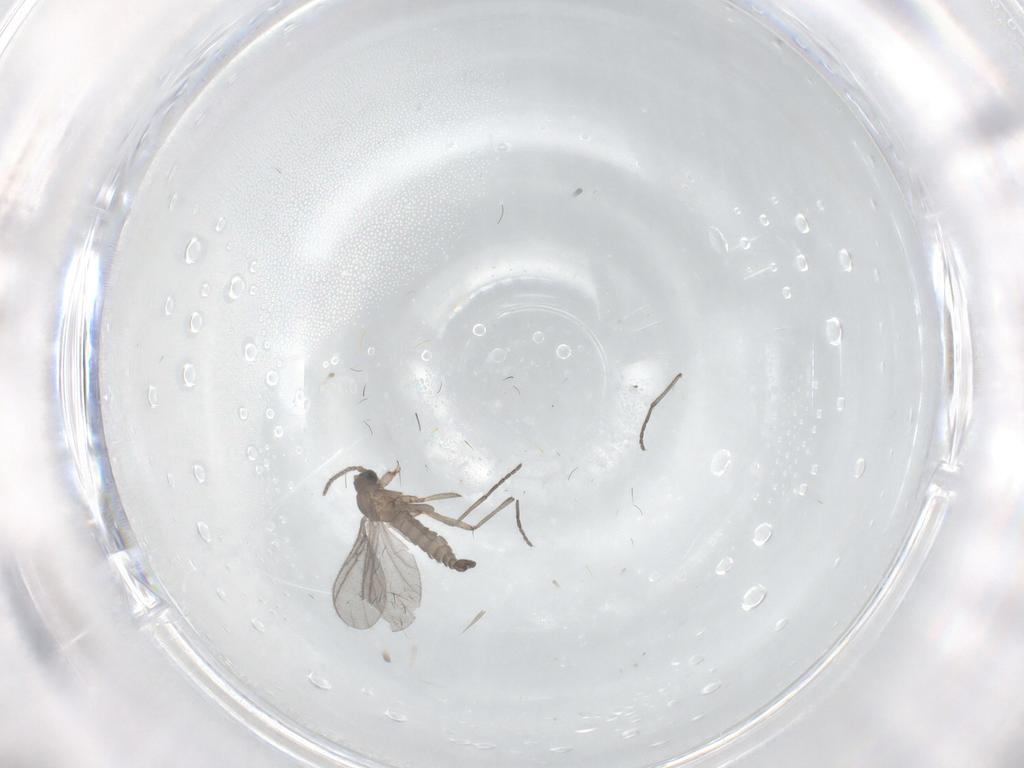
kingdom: Animalia
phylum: Arthropoda
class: Insecta
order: Diptera
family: Sciaridae
